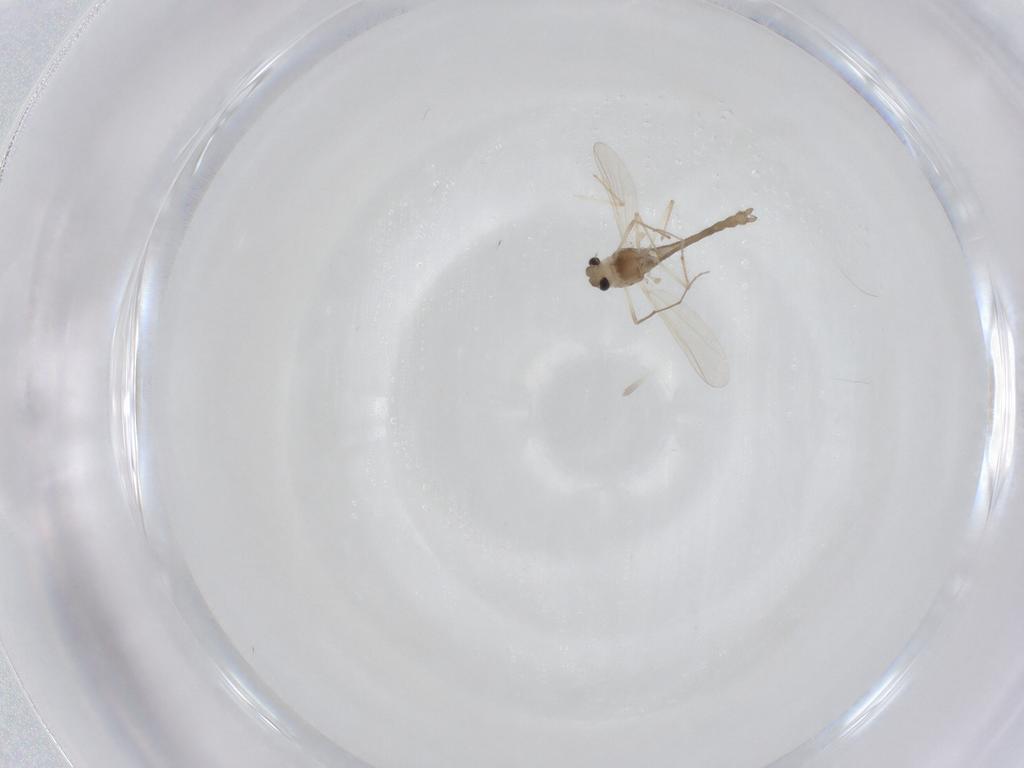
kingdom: Animalia
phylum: Arthropoda
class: Insecta
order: Diptera
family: Chironomidae
